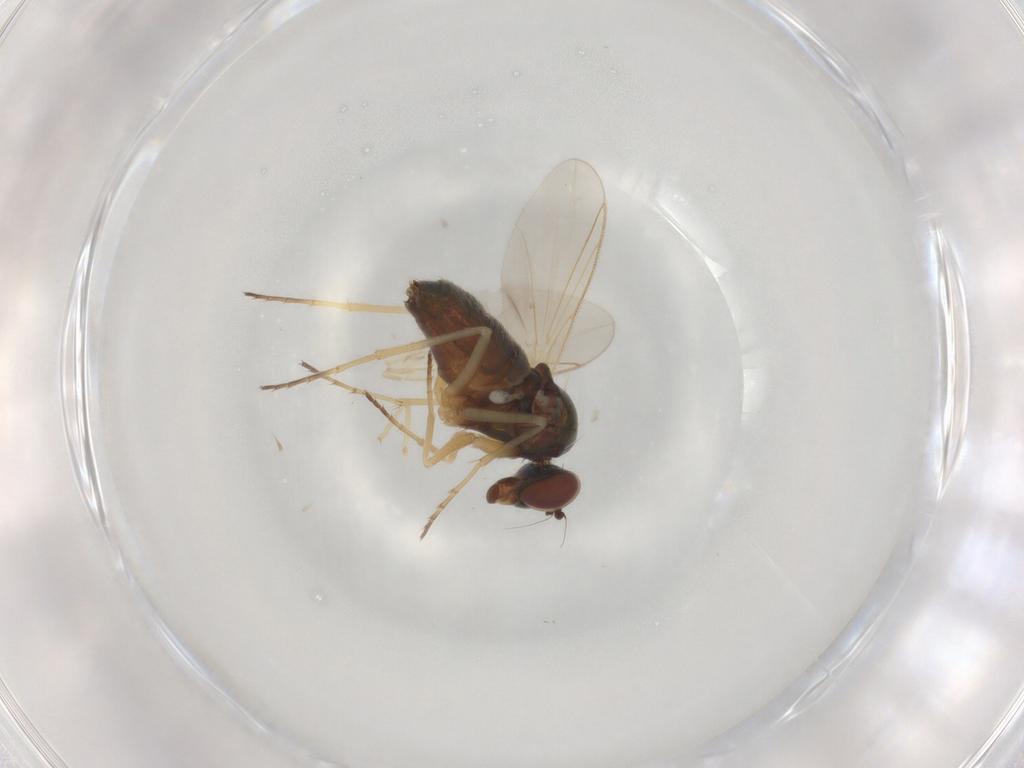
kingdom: Animalia
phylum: Arthropoda
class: Insecta
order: Diptera
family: Dolichopodidae
